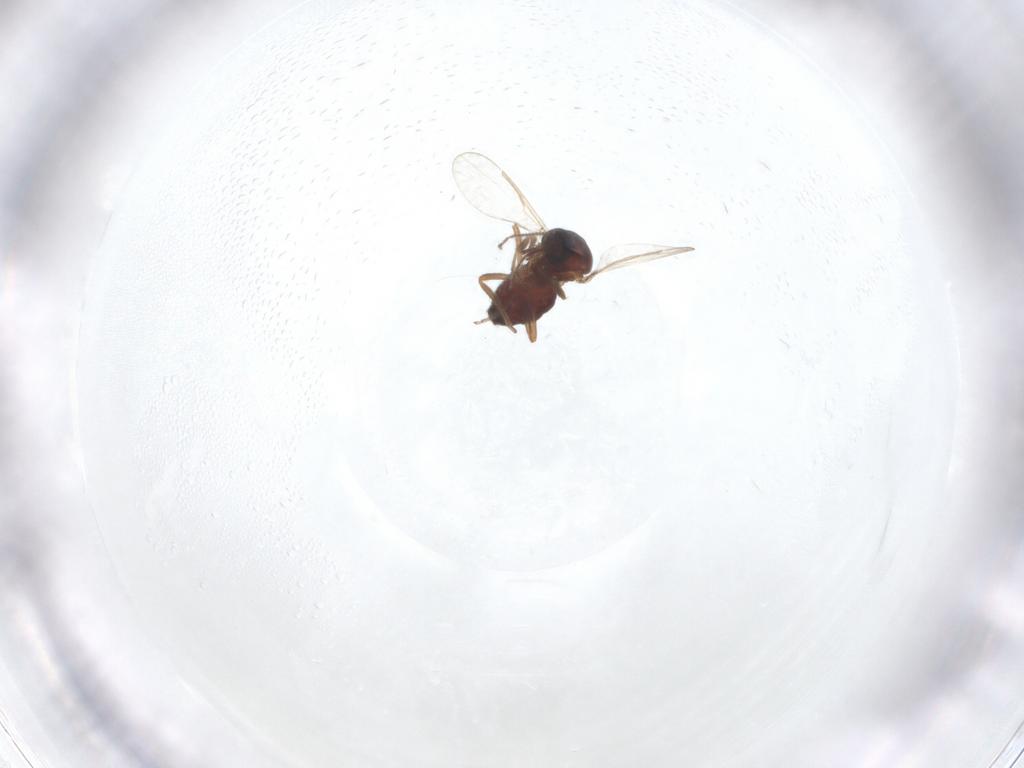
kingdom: Animalia
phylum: Arthropoda
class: Insecta
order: Diptera
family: Ceratopogonidae
